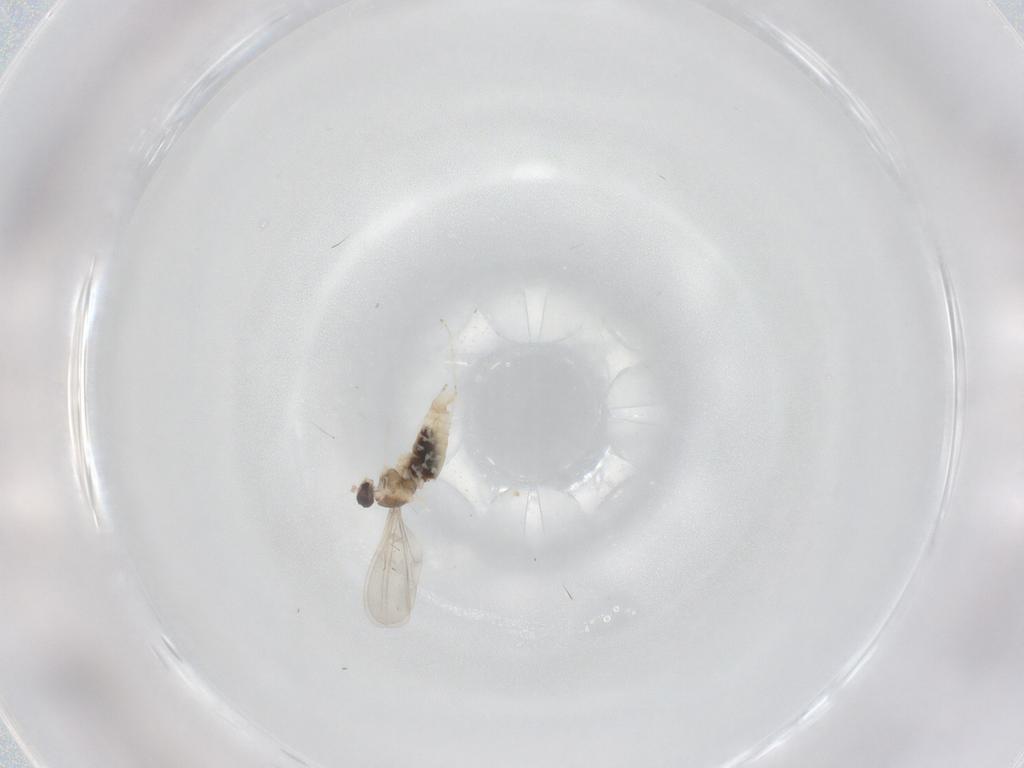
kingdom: Animalia
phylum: Arthropoda
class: Insecta
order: Diptera
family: Cecidomyiidae
